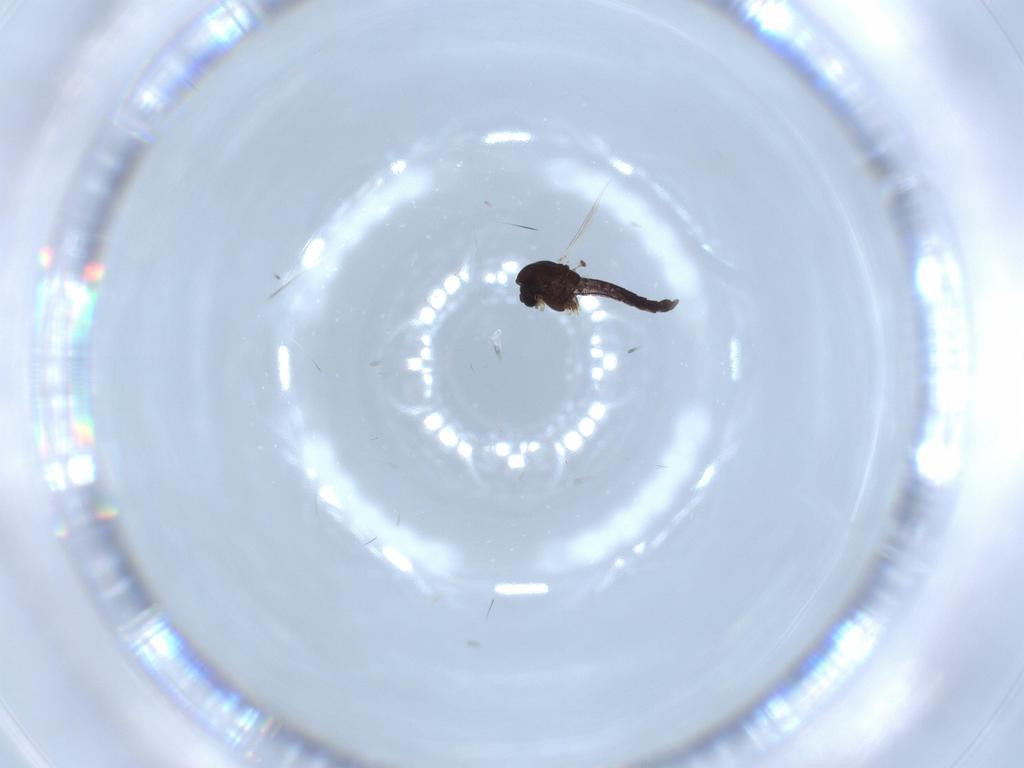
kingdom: Animalia
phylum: Arthropoda
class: Insecta
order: Diptera
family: Chironomidae
